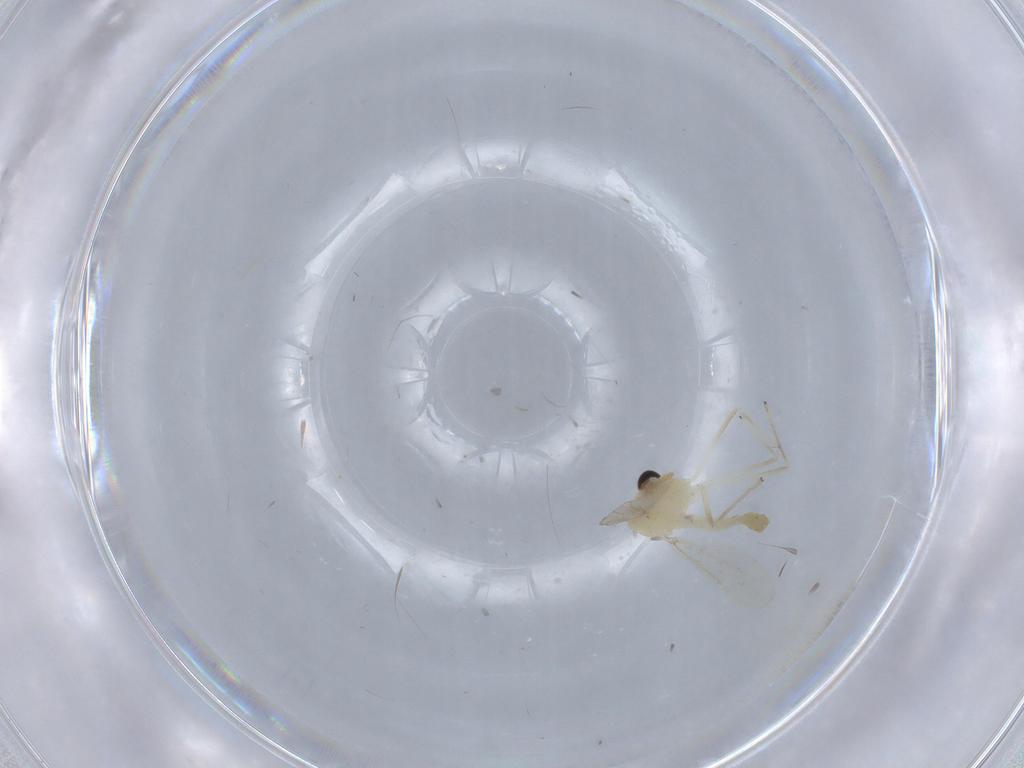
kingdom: Animalia
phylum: Arthropoda
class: Insecta
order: Diptera
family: Chironomidae
